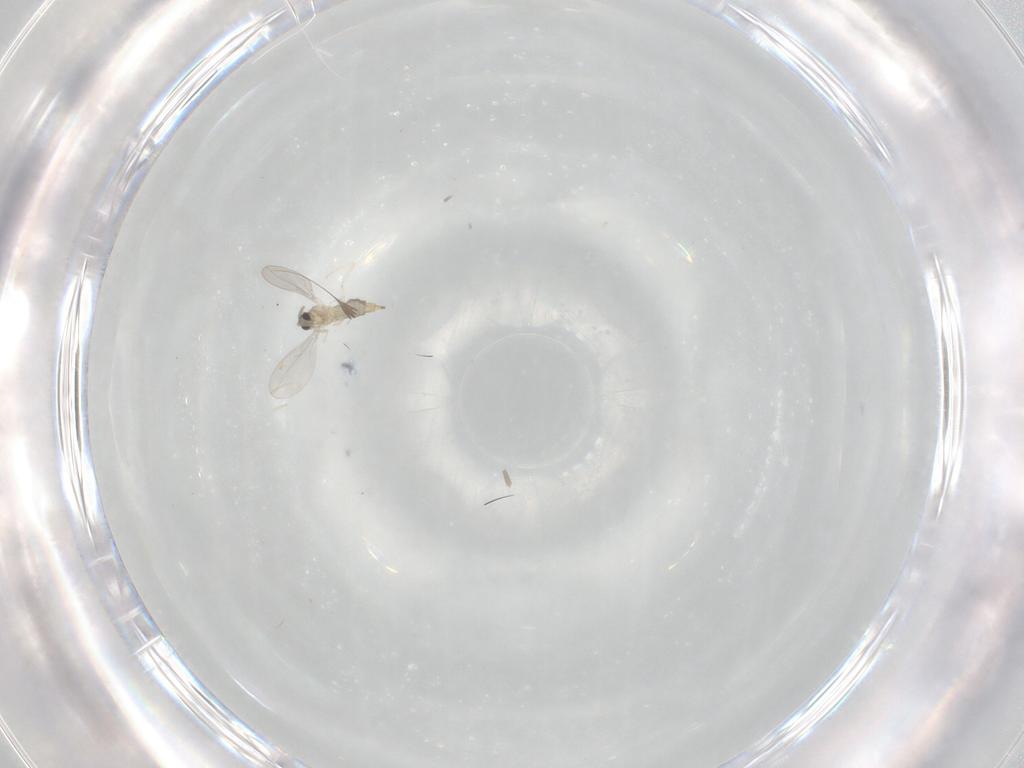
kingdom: Animalia
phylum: Arthropoda
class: Insecta
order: Diptera
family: Cecidomyiidae
